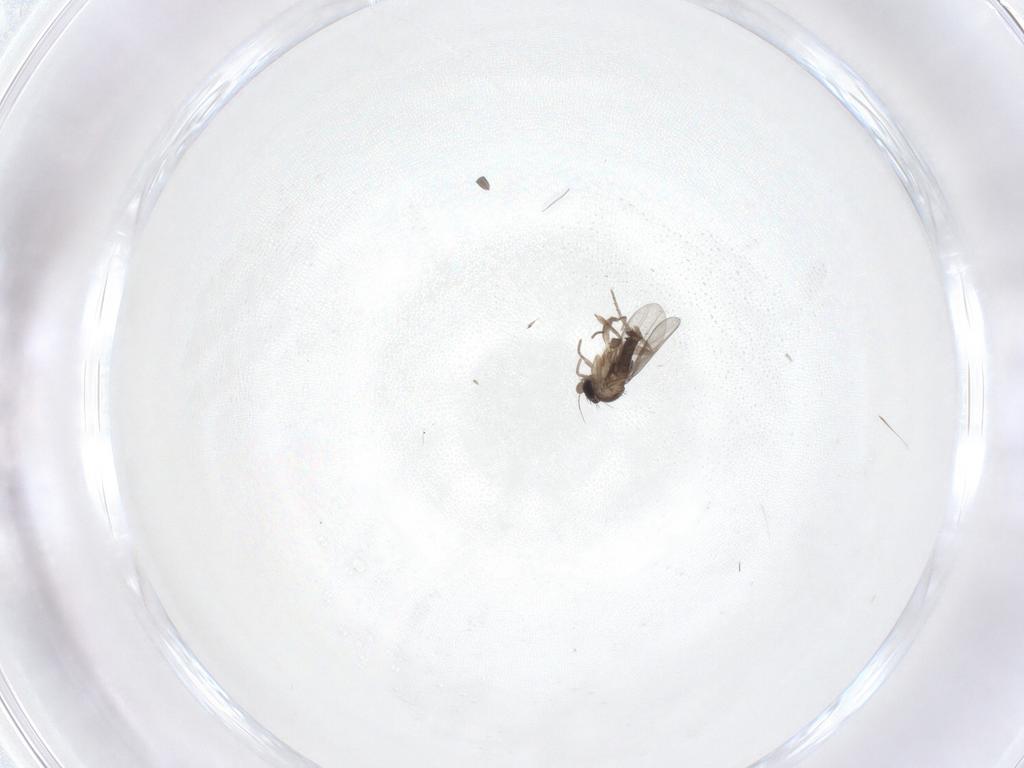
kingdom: Animalia
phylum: Arthropoda
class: Insecta
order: Diptera
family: Phoridae
